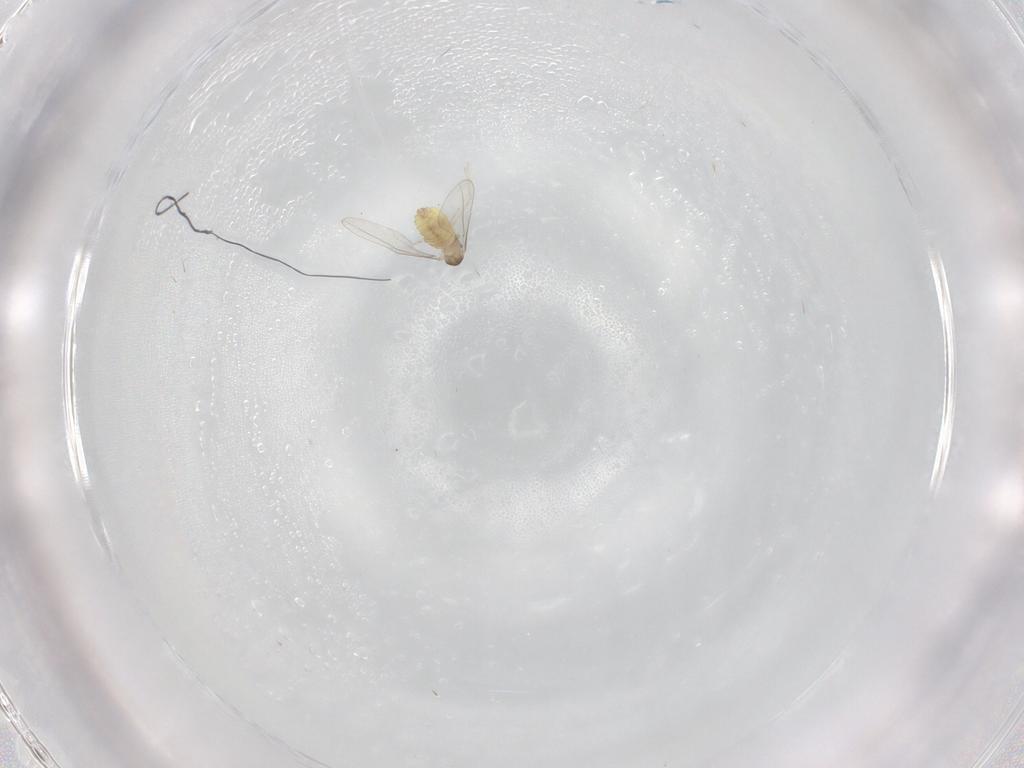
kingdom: Animalia
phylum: Arthropoda
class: Insecta
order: Diptera
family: Cecidomyiidae
